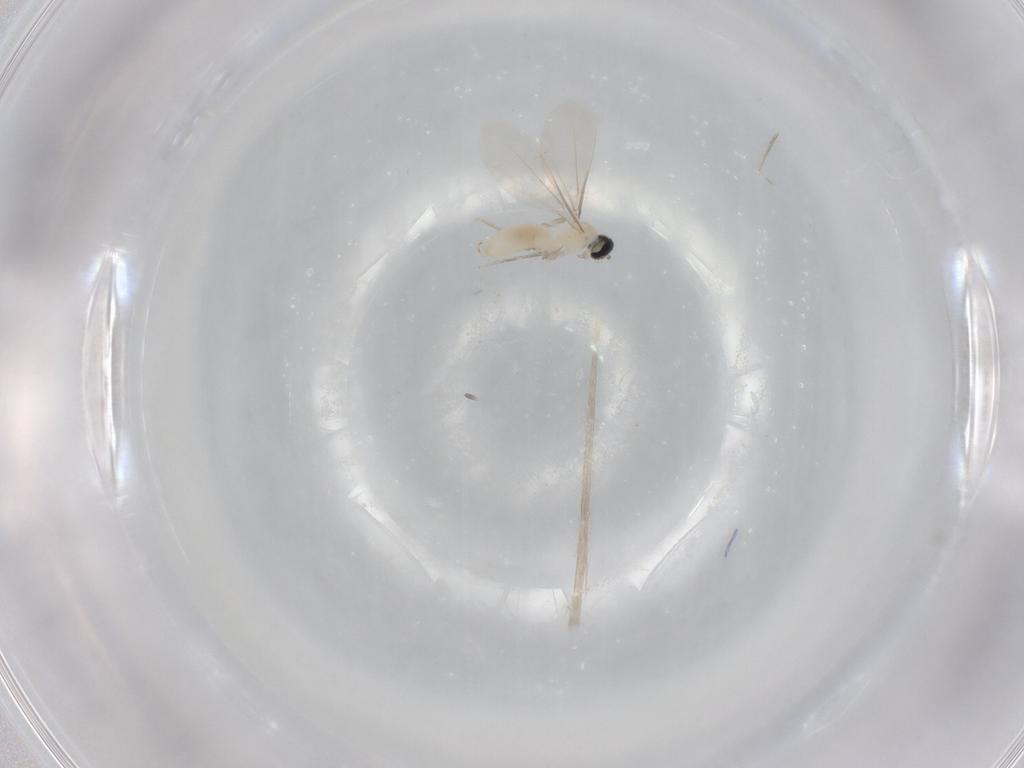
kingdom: Animalia
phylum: Arthropoda
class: Insecta
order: Diptera
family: Cecidomyiidae
